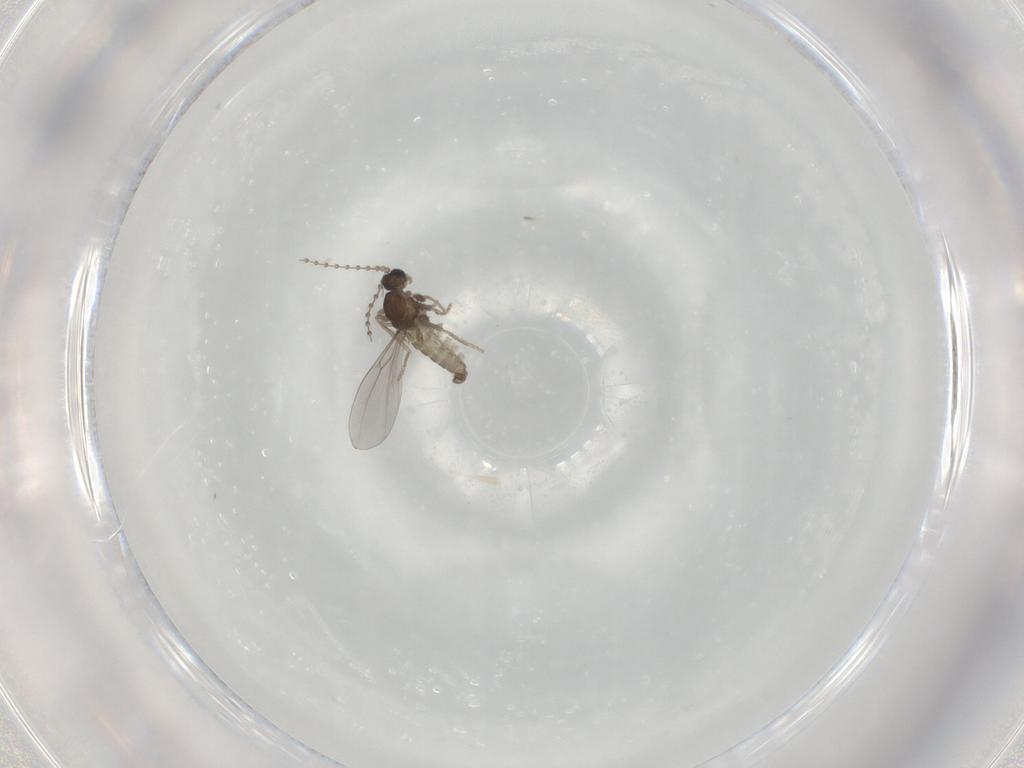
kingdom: Animalia
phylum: Arthropoda
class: Insecta
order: Diptera
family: Cecidomyiidae
